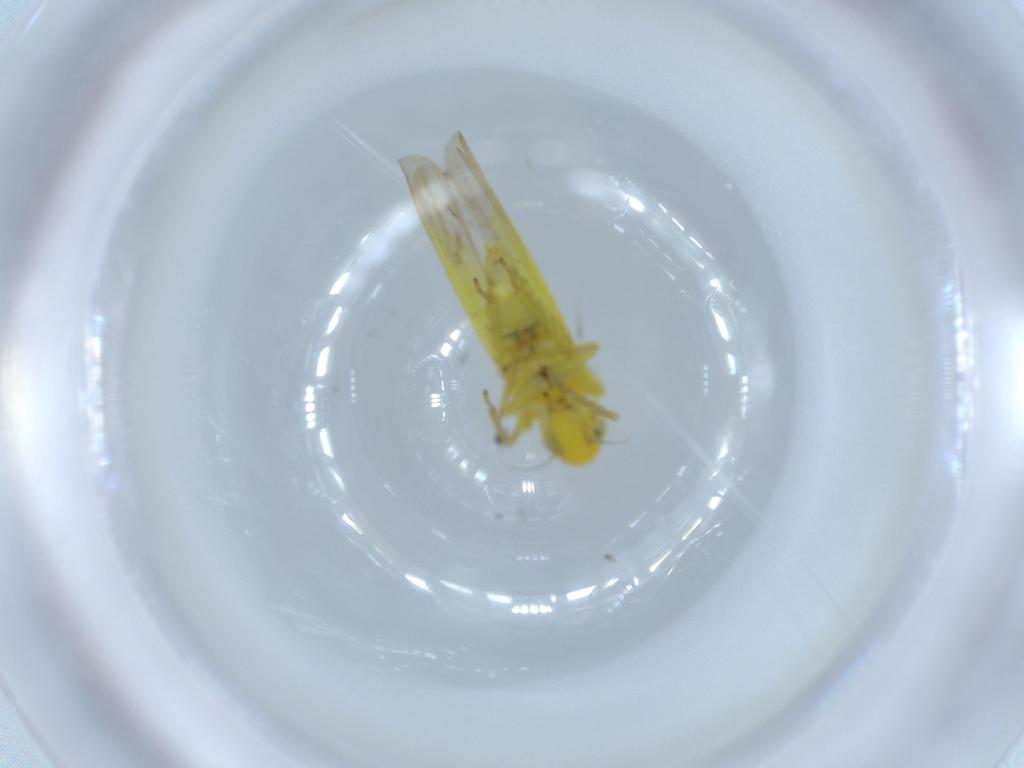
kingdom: Animalia
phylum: Arthropoda
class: Insecta
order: Hemiptera
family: Cicadellidae
